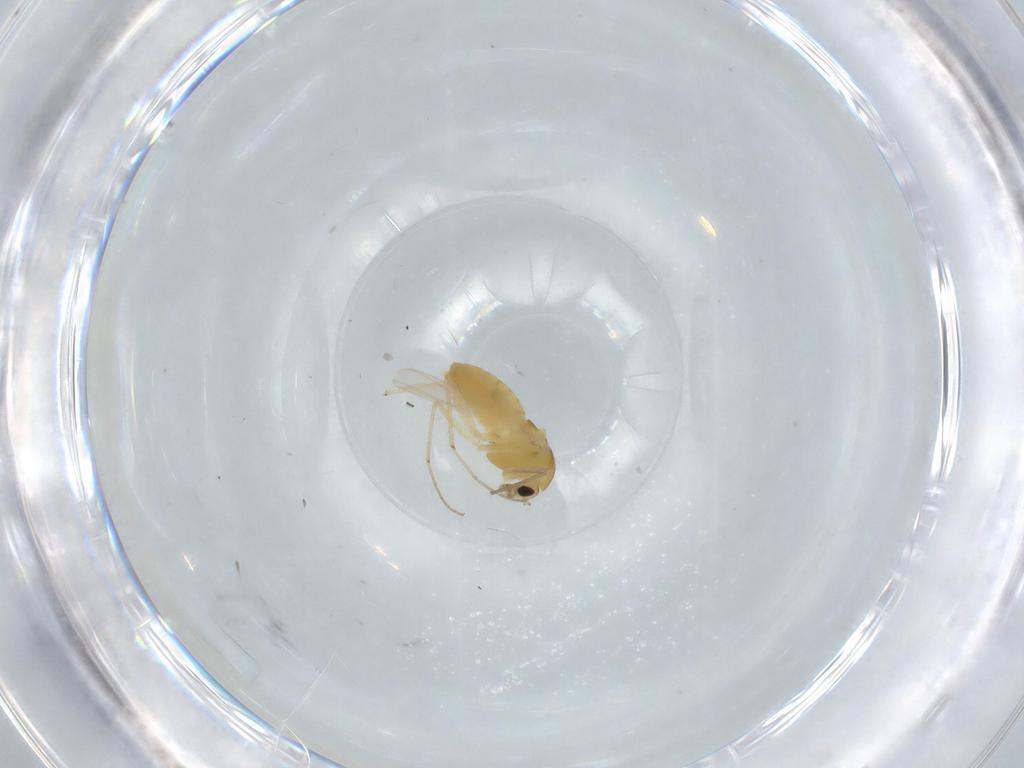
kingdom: Animalia
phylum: Arthropoda
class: Insecta
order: Diptera
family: Chironomidae
